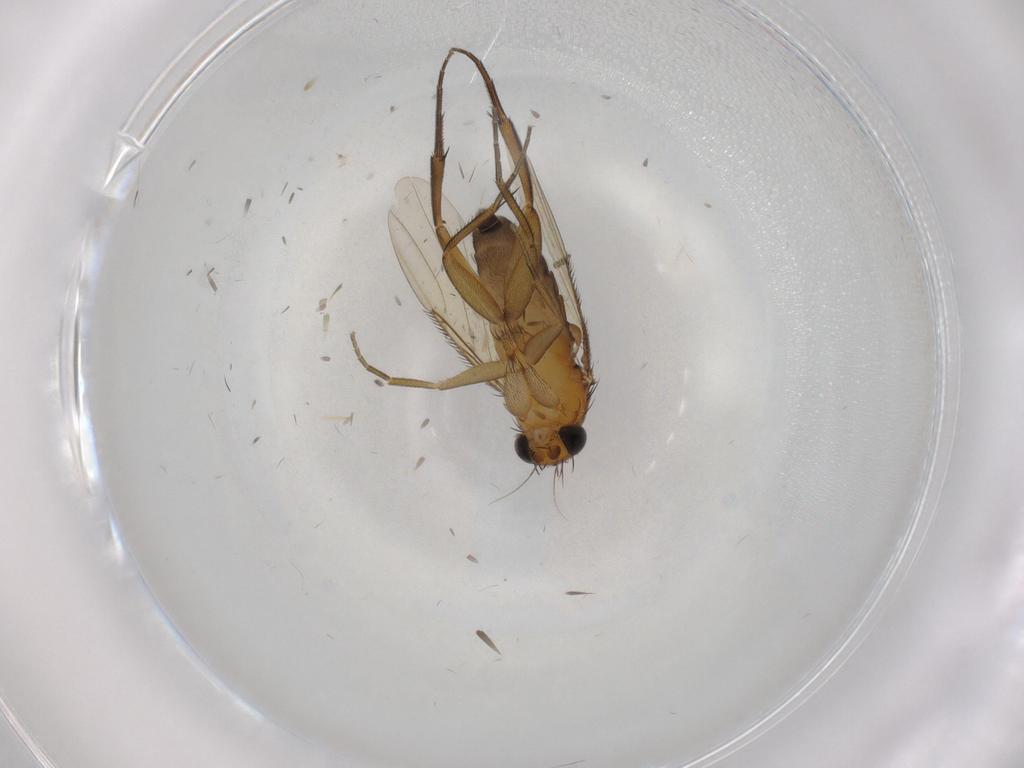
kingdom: Animalia
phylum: Arthropoda
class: Insecta
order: Diptera
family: Phoridae
